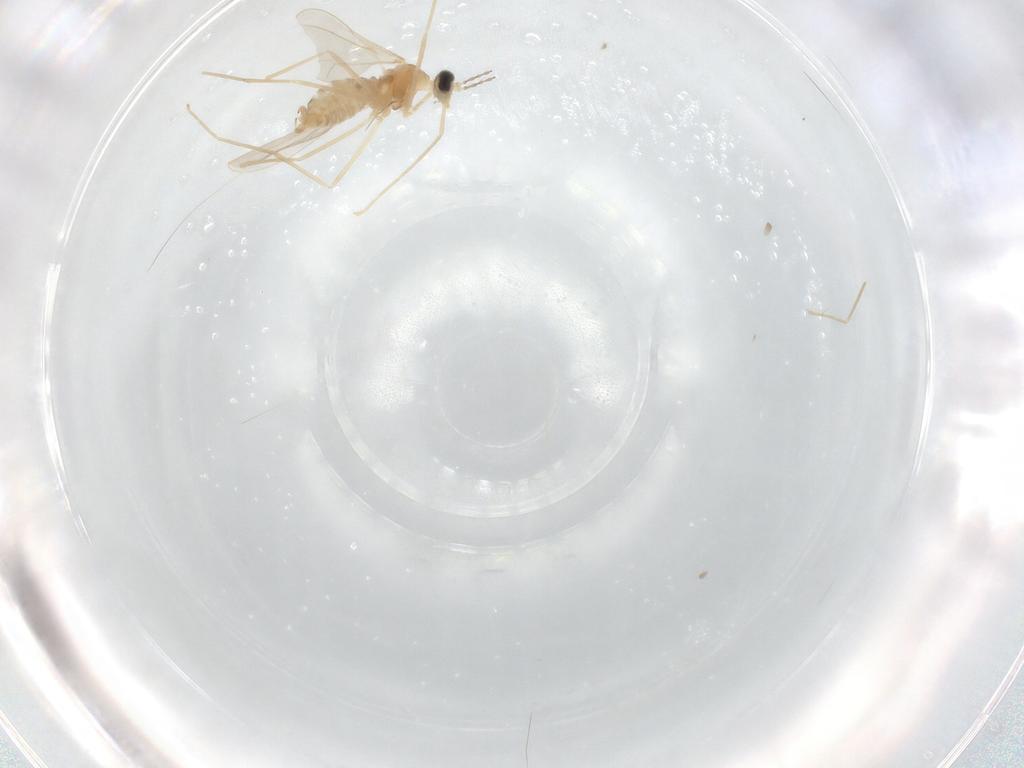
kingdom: Animalia
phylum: Arthropoda
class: Insecta
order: Diptera
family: Cecidomyiidae
